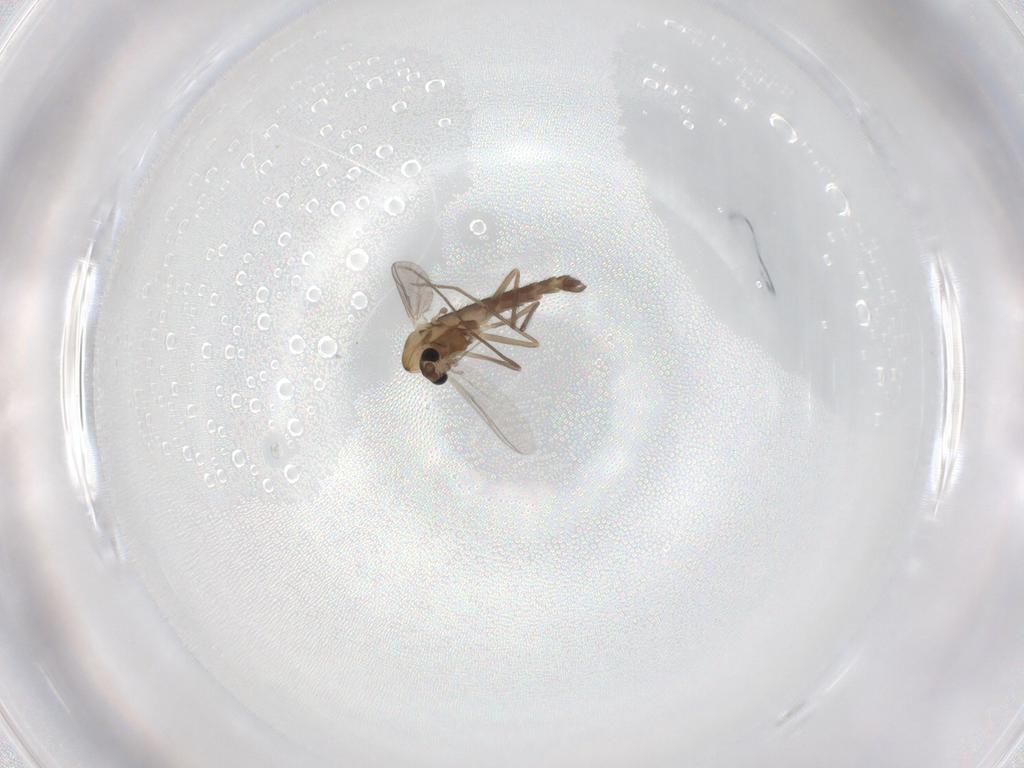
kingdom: Animalia
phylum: Arthropoda
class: Insecta
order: Diptera
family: Chironomidae
